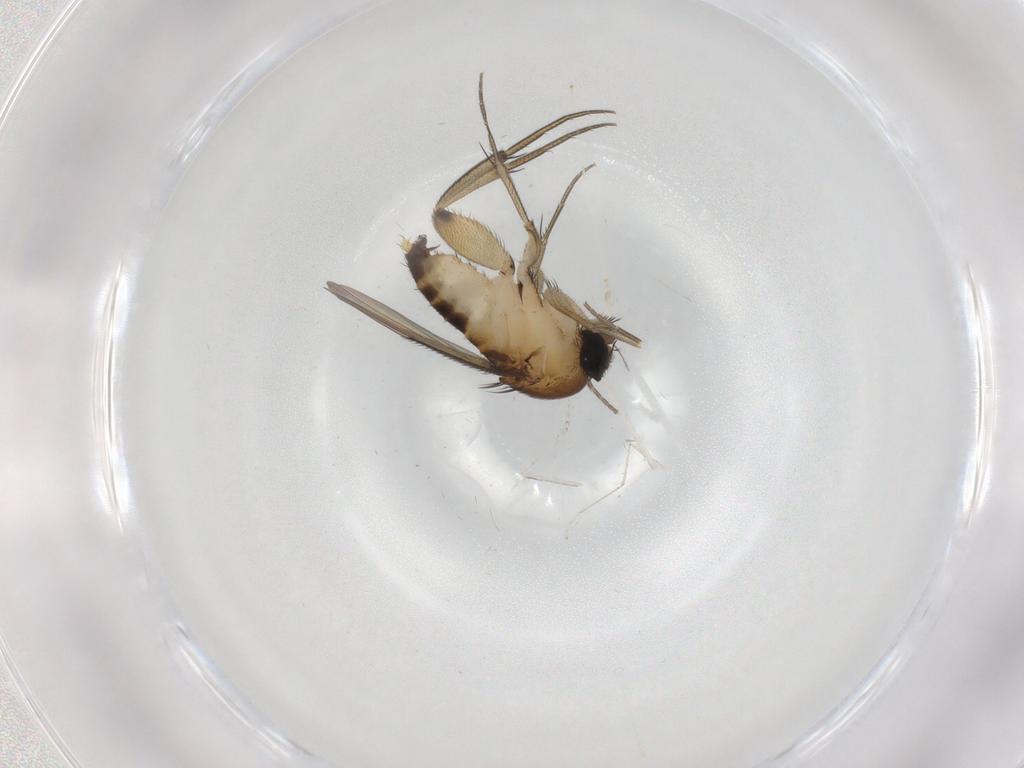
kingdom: Animalia
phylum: Arthropoda
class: Insecta
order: Diptera
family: Phoridae
